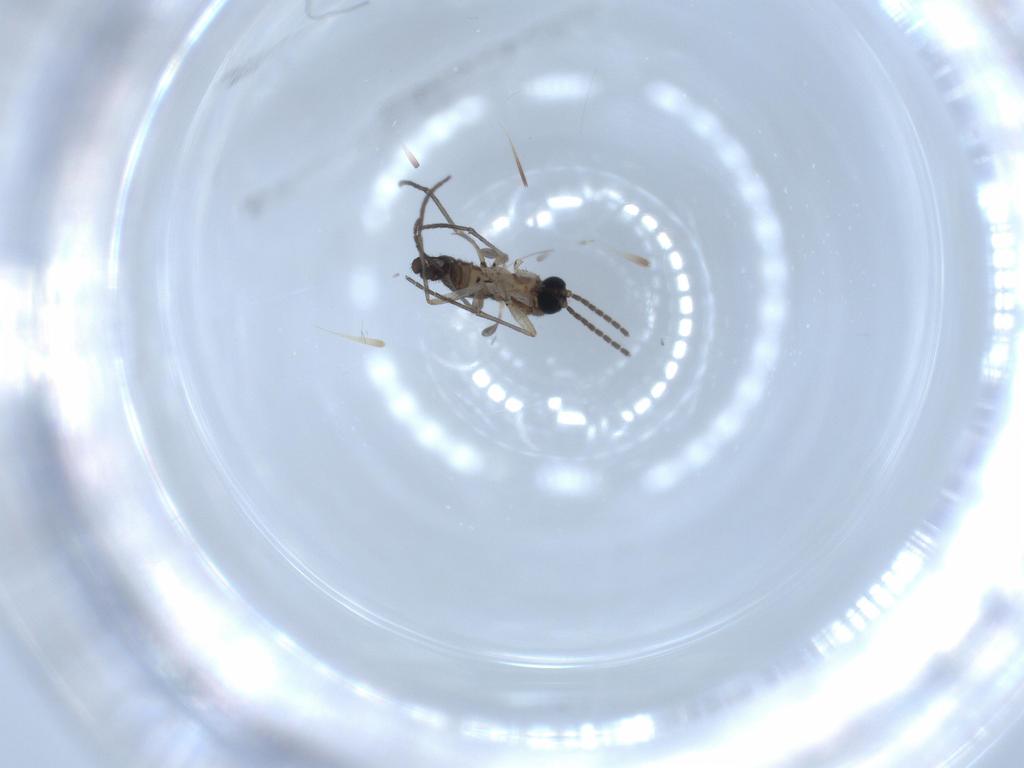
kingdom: Animalia
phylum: Arthropoda
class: Insecta
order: Diptera
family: Sciaridae
